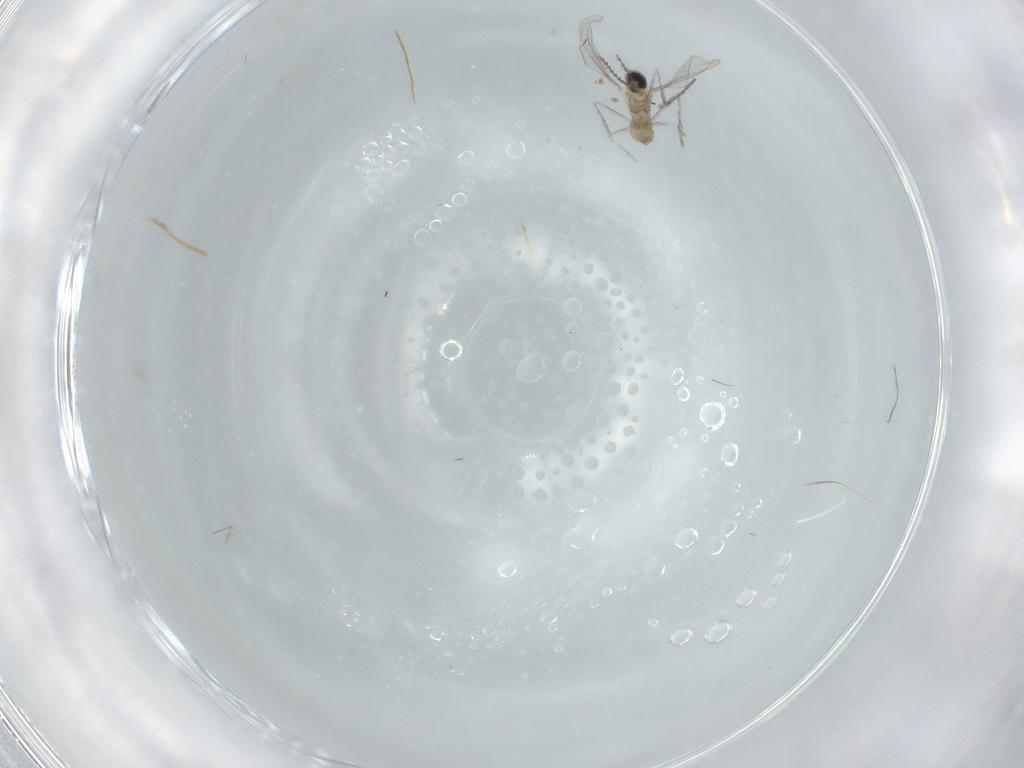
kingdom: Animalia
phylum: Arthropoda
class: Insecta
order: Diptera
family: Cecidomyiidae
